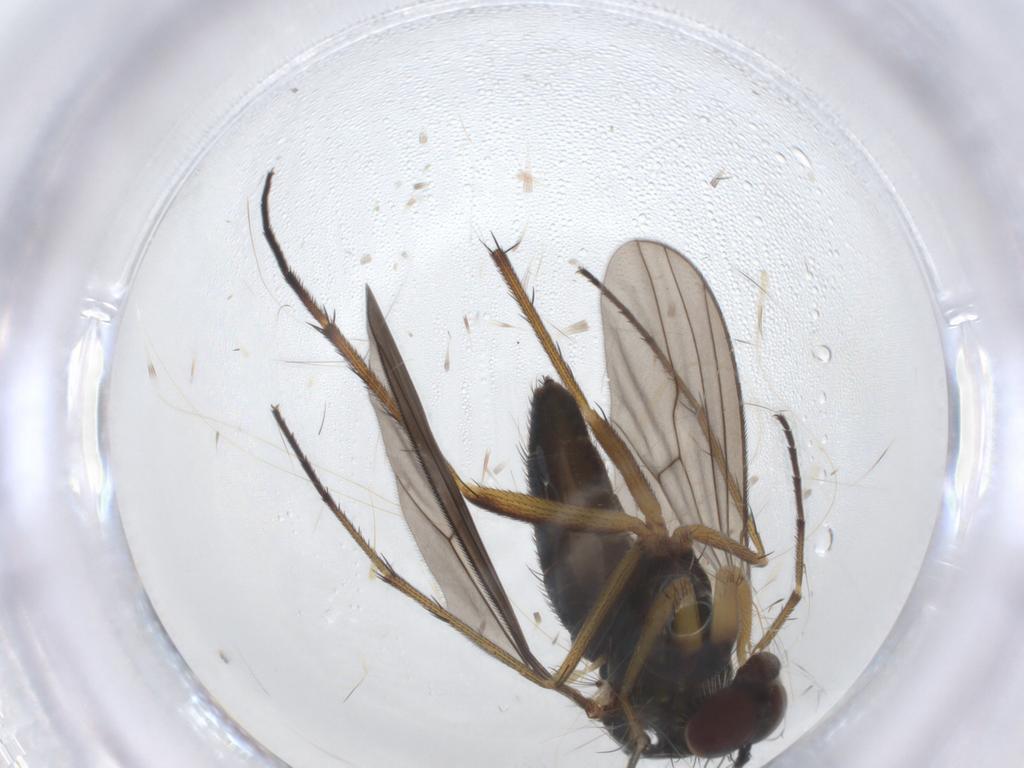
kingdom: Animalia
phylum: Arthropoda
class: Insecta
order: Diptera
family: Dolichopodidae
